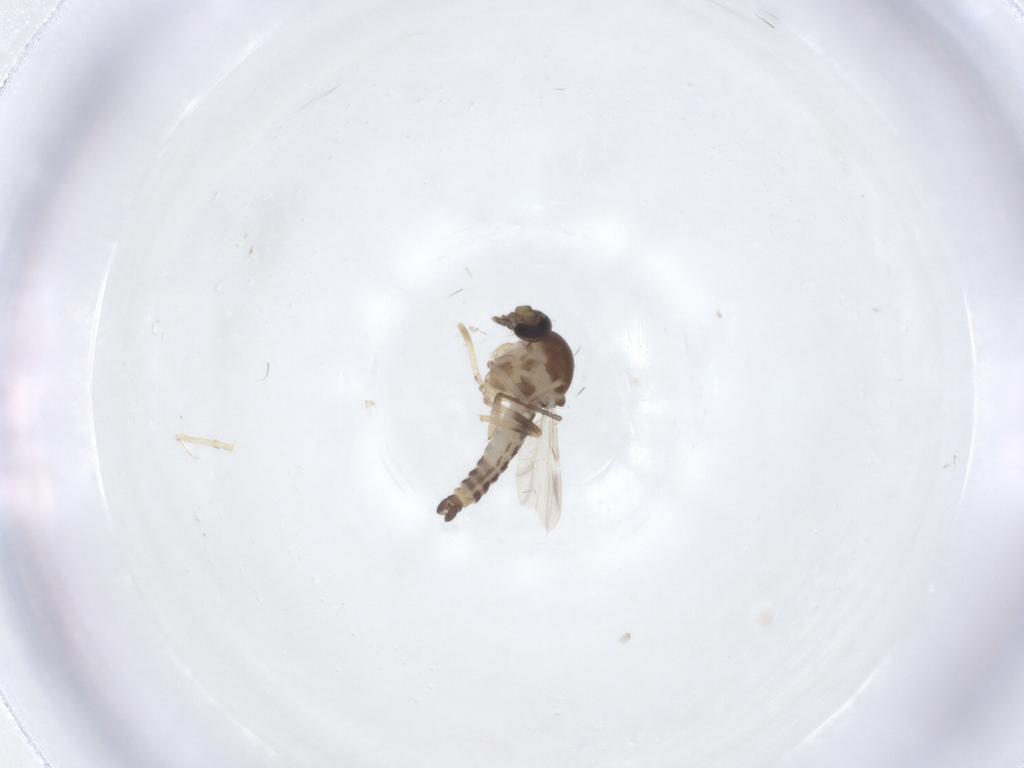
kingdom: Animalia
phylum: Arthropoda
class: Insecta
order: Diptera
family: Ceratopogonidae
